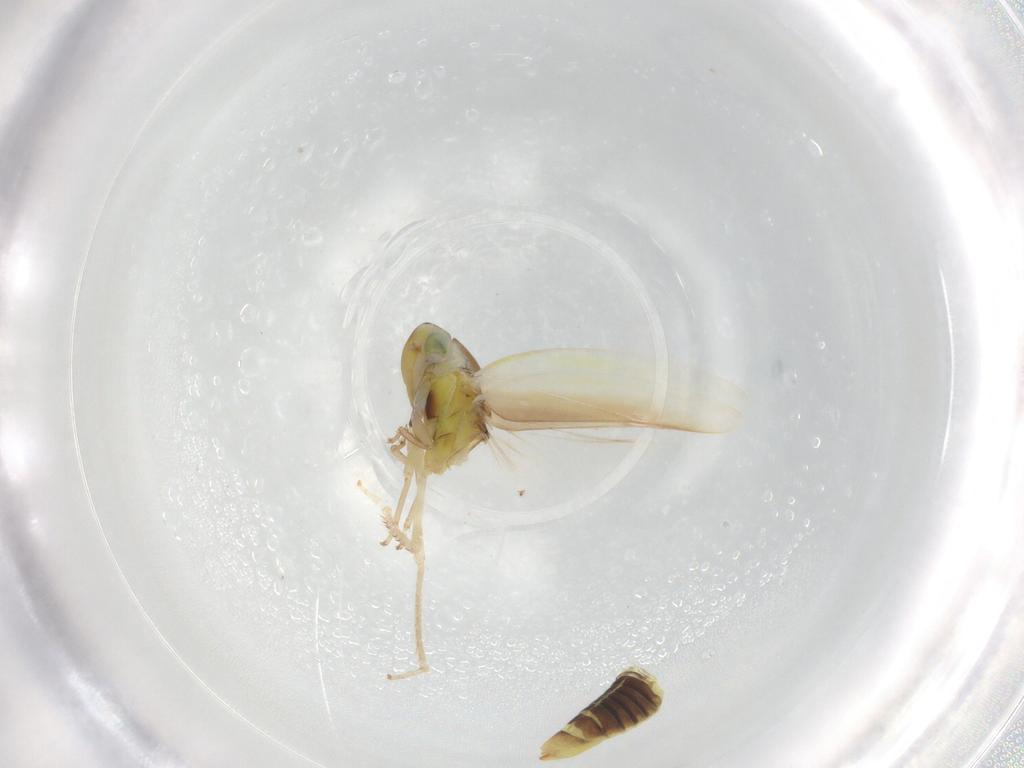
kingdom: Animalia
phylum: Arthropoda
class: Insecta
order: Hemiptera
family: Cicadellidae
